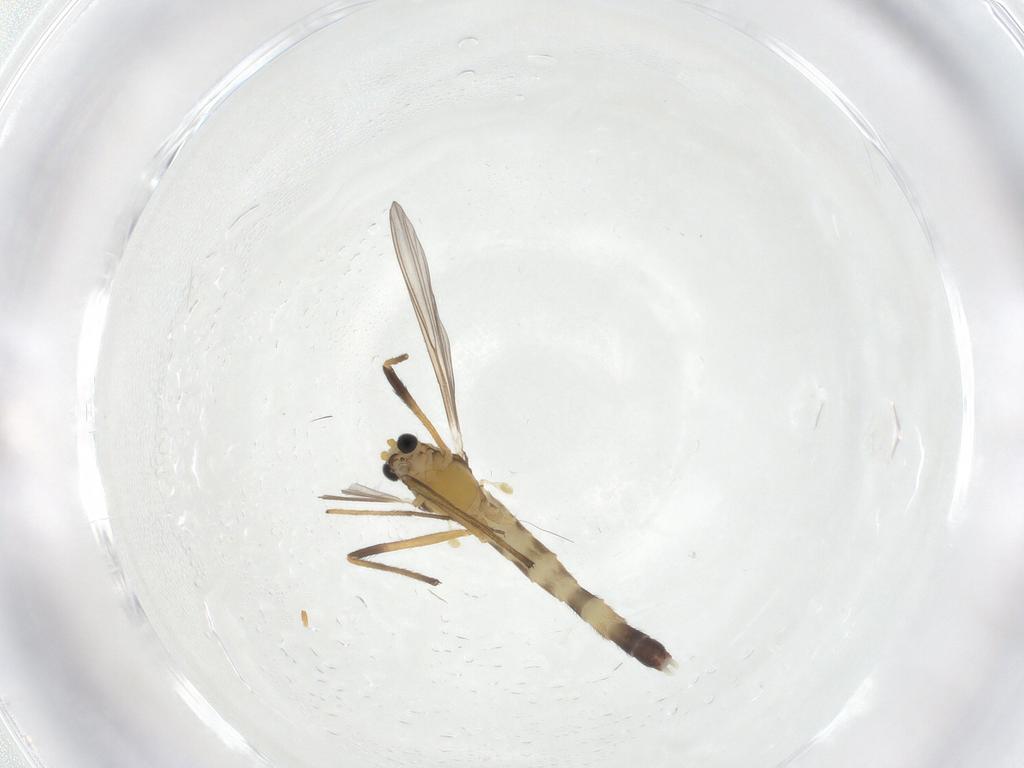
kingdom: Animalia
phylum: Arthropoda
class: Insecta
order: Diptera
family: Chironomidae
